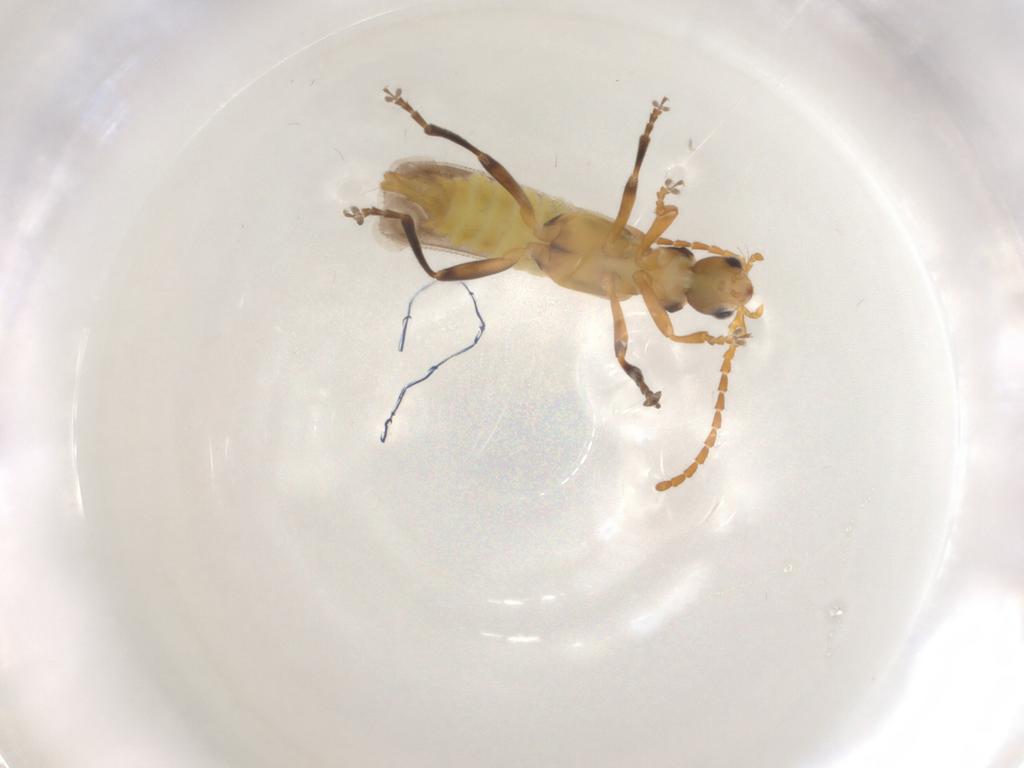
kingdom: Animalia
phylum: Arthropoda
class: Insecta
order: Coleoptera
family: Cantharidae
